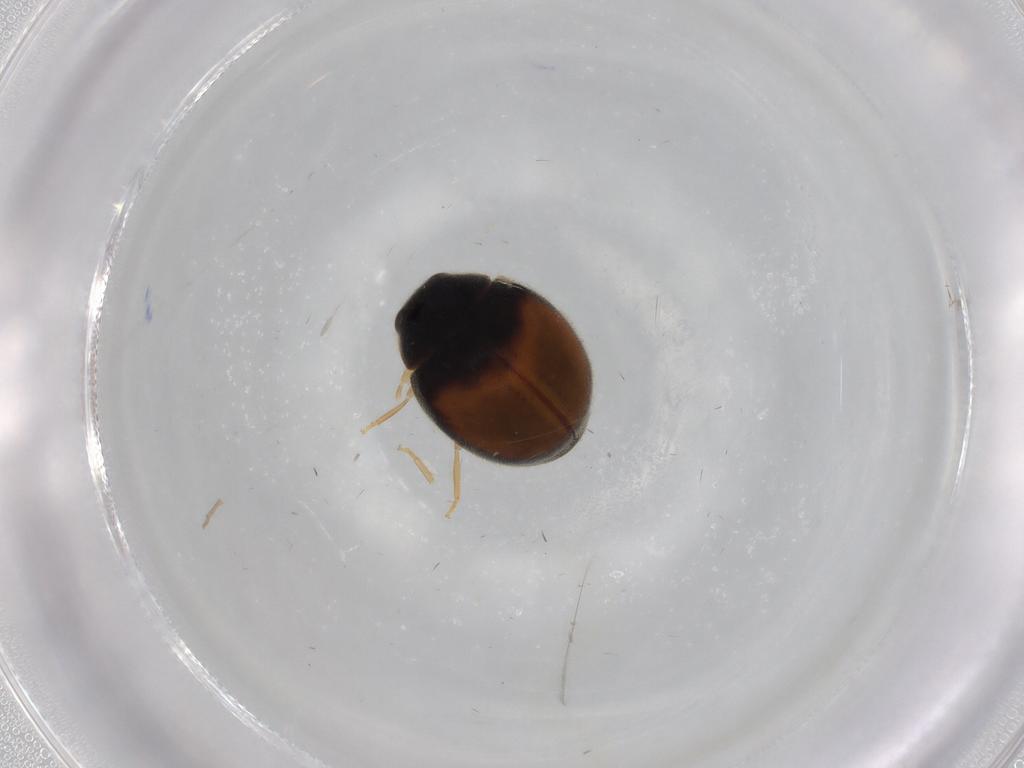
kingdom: Animalia
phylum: Arthropoda
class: Insecta
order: Coleoptera
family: Coccinellidae
